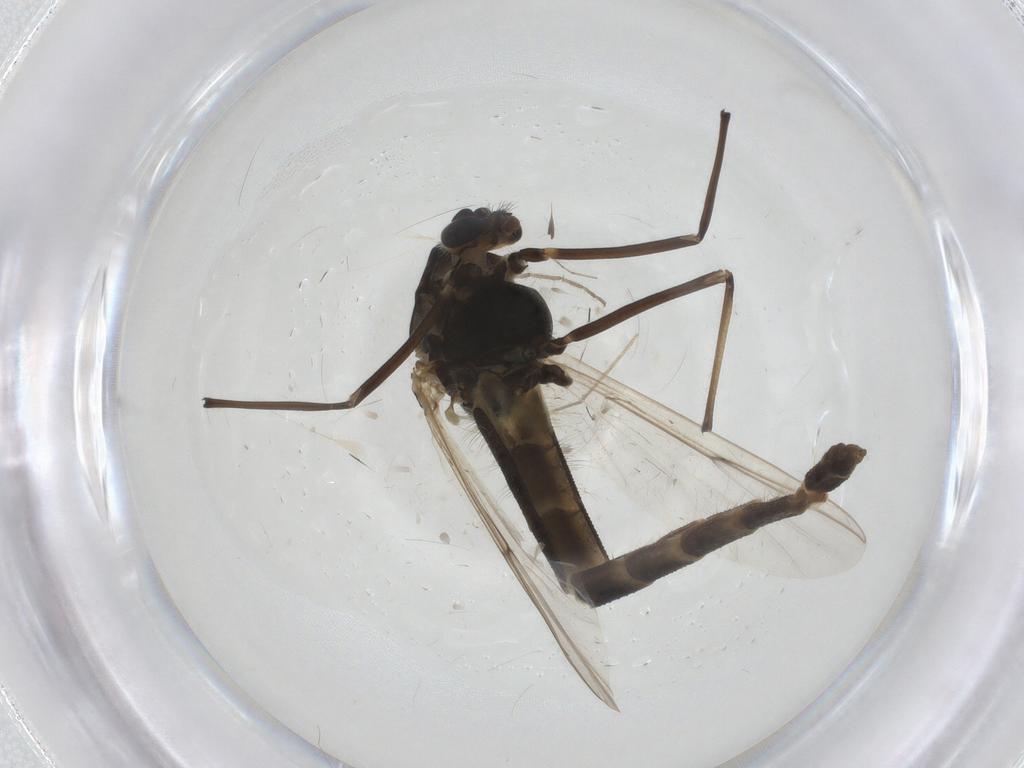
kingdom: Animalia
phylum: Arthropoda
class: Insecta
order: Diptera
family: Chironomidae
